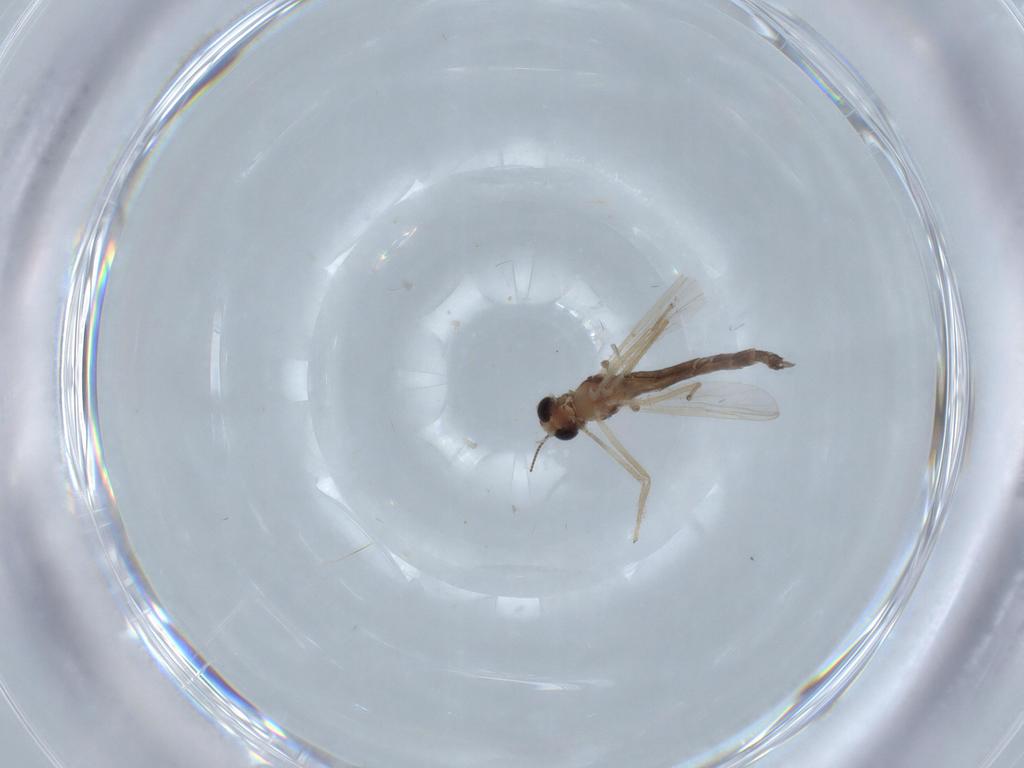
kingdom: Animalia
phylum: Arthropoda
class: Insecta
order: Diptera
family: Chironomidae
